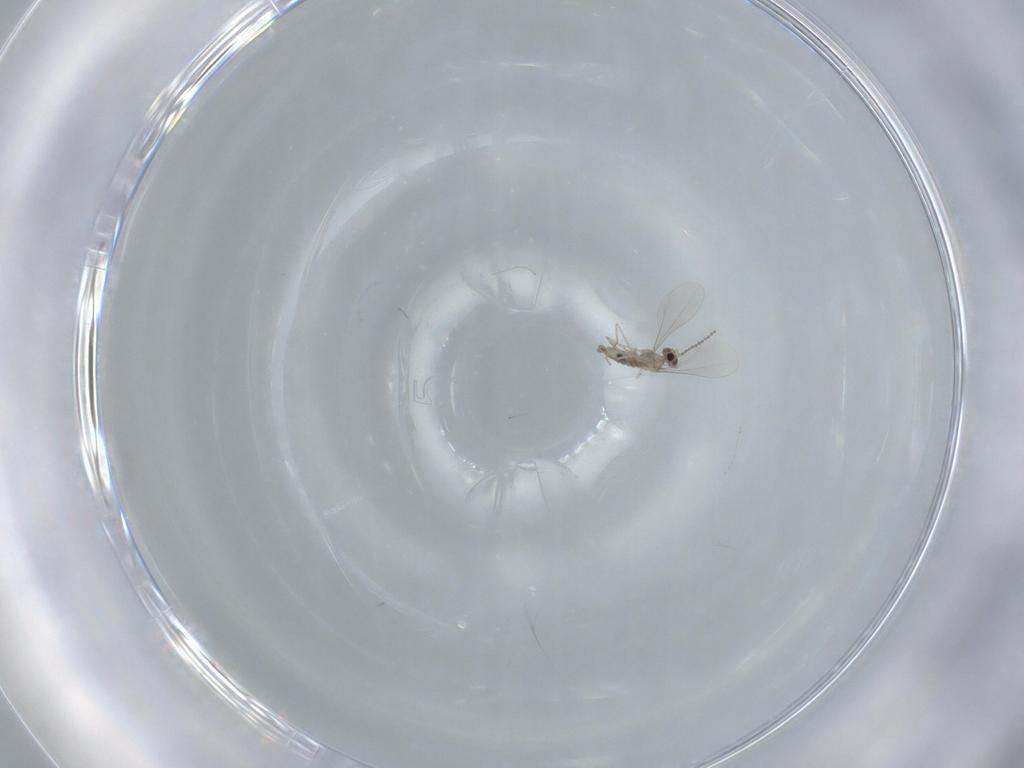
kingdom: Animalia
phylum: Arthropoda
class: Insecta
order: Diptera
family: Cecidomyiidae
